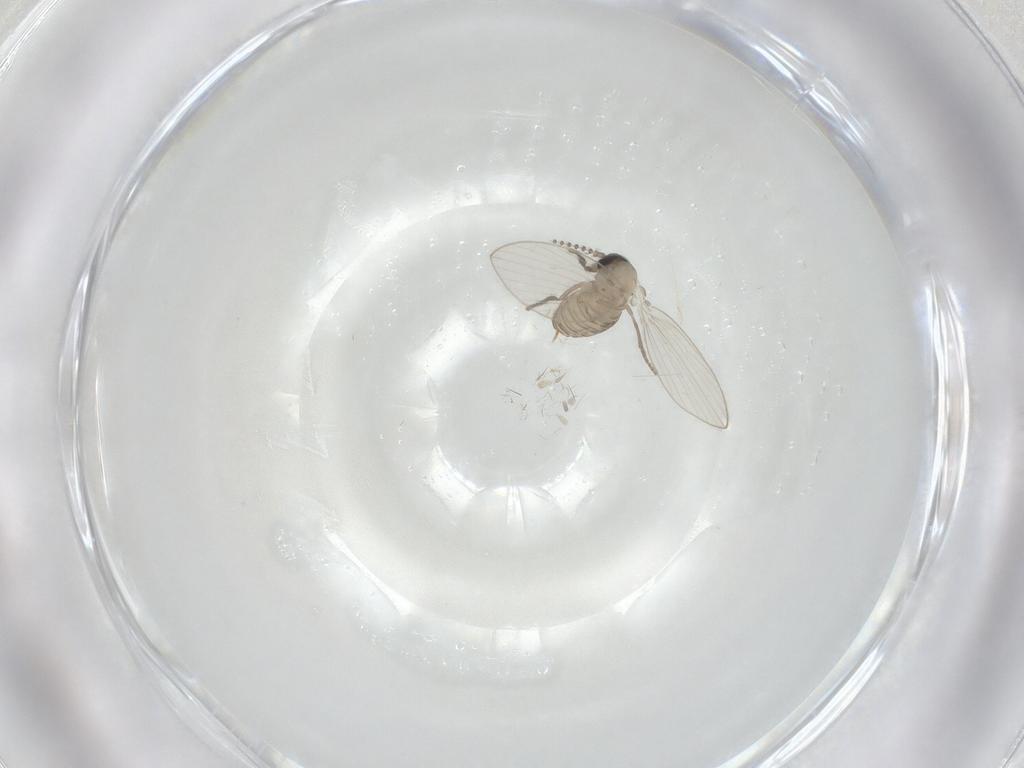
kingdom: Animalia
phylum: Arthropoda
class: Insecta
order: Diptera
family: Psychodidae
